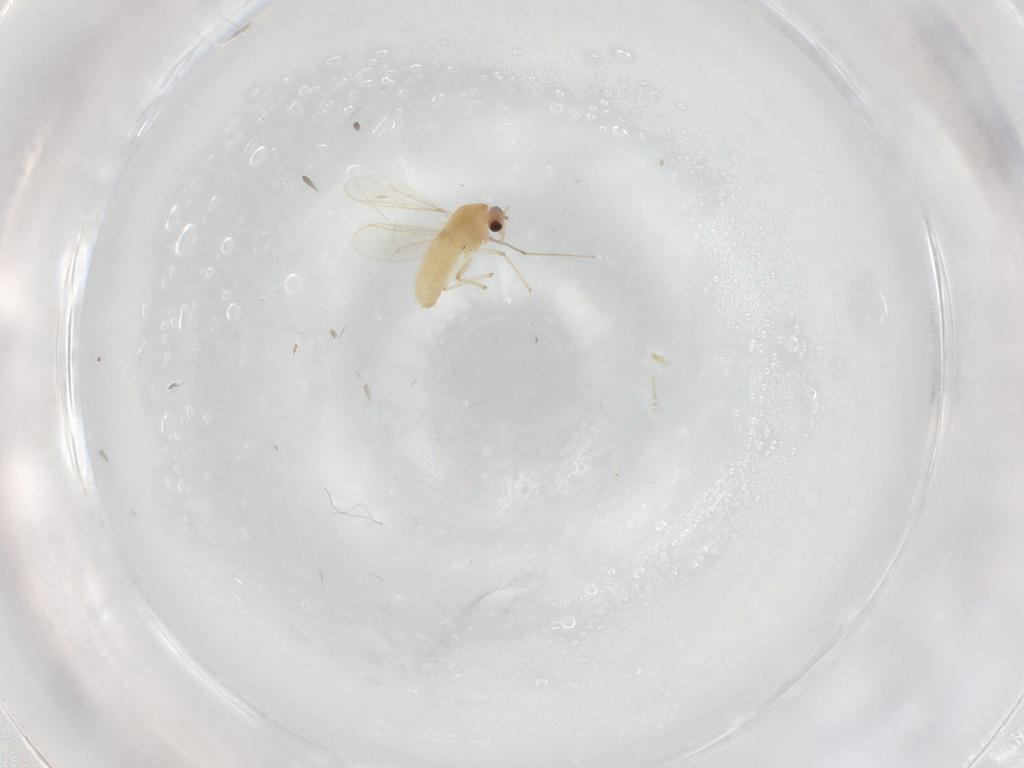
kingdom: Animalia
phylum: Arthropoda
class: Insecta
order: Diptera
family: Chironomidae
